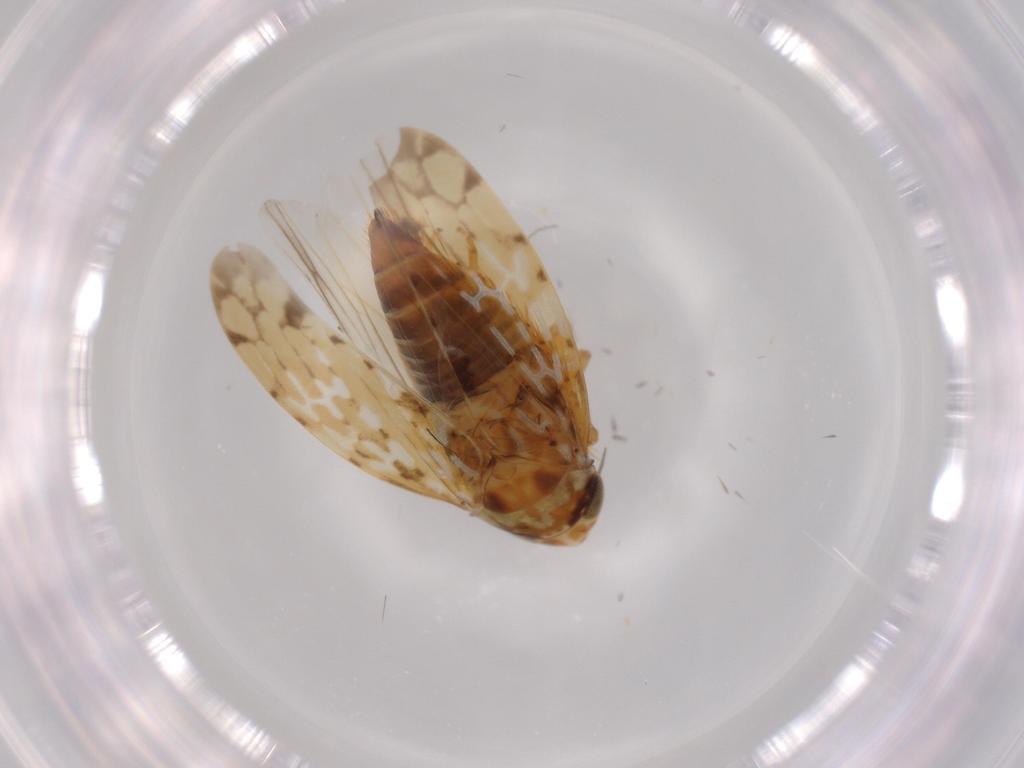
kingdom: Animalia
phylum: Arthropoda
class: Insecta
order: Hemiptera
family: Cicadellidae
